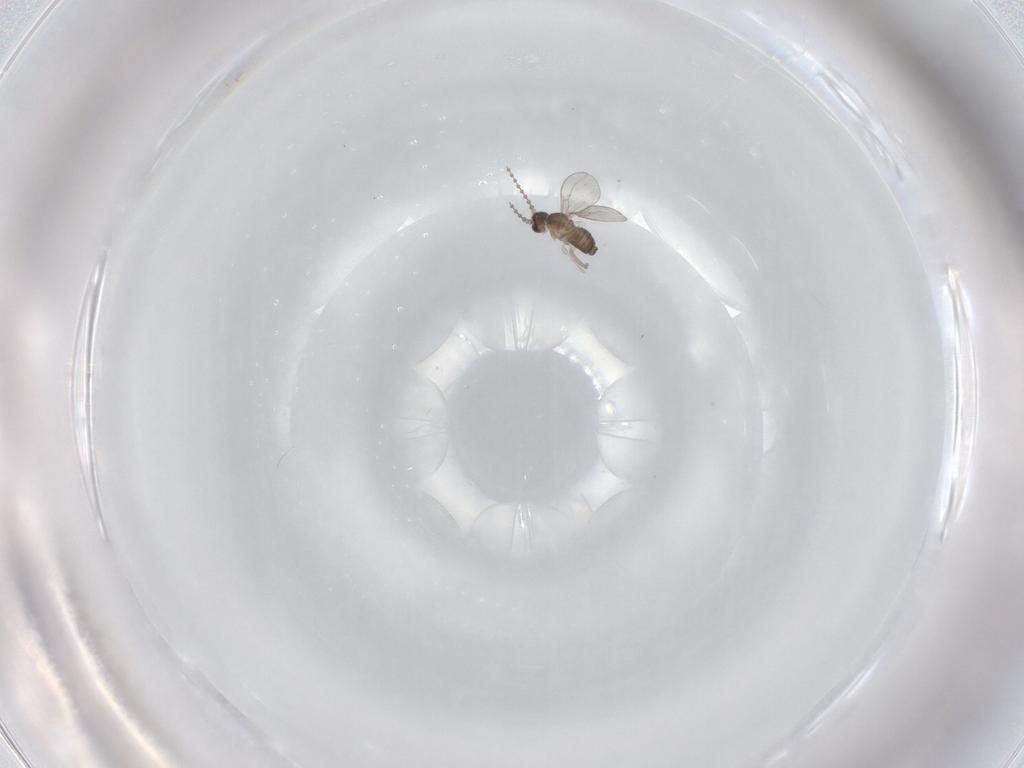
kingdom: Animalia
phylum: Arthropoda
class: Insecta
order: Diptera
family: Cecidomyiidae
